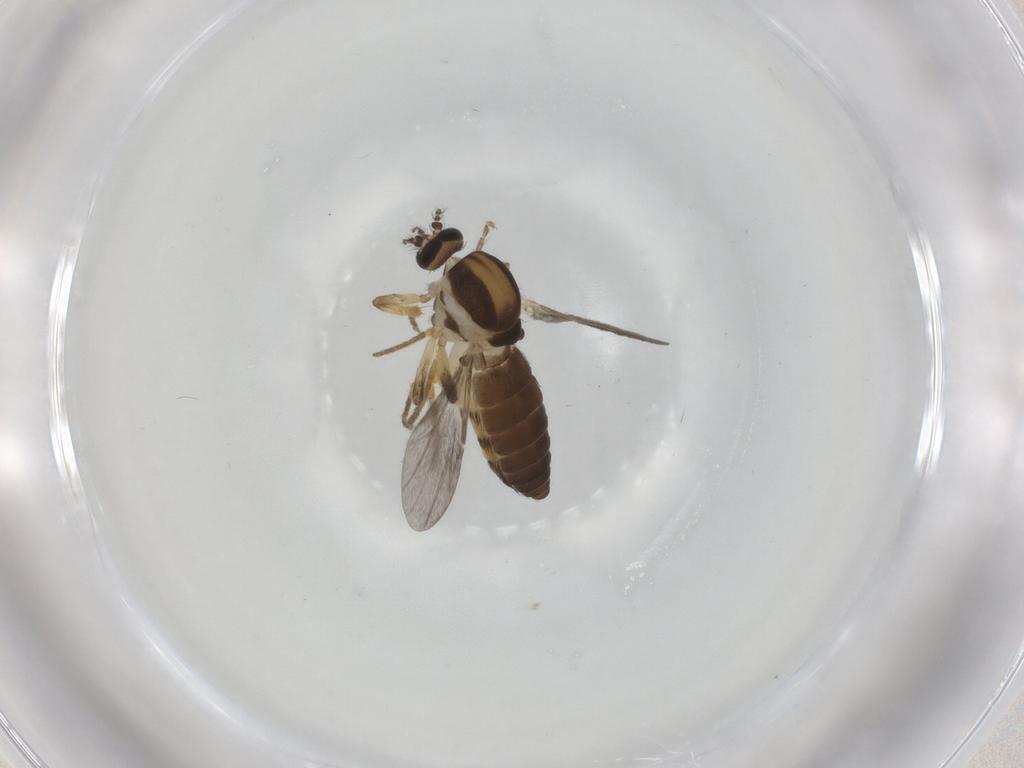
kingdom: Animalia
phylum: Arthropoda
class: Insecta
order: Diptera
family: Ceratopogonidae
